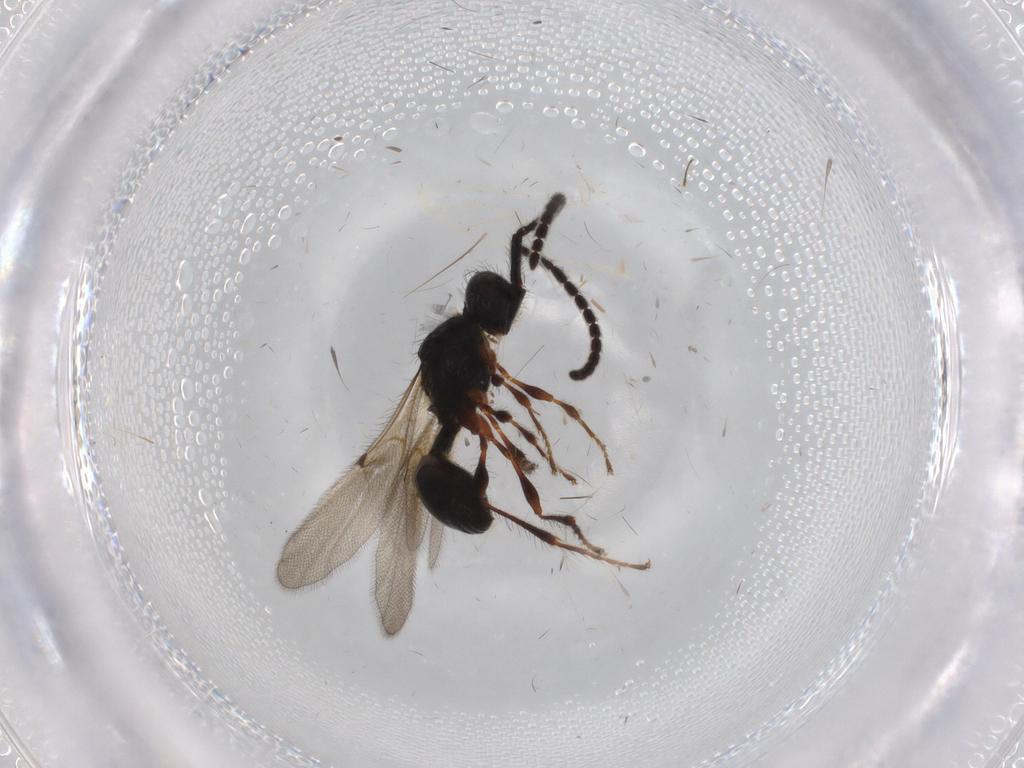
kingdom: Animalia
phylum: Arthropoda
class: Insecta
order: Hymenoptera
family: Diapriidae
